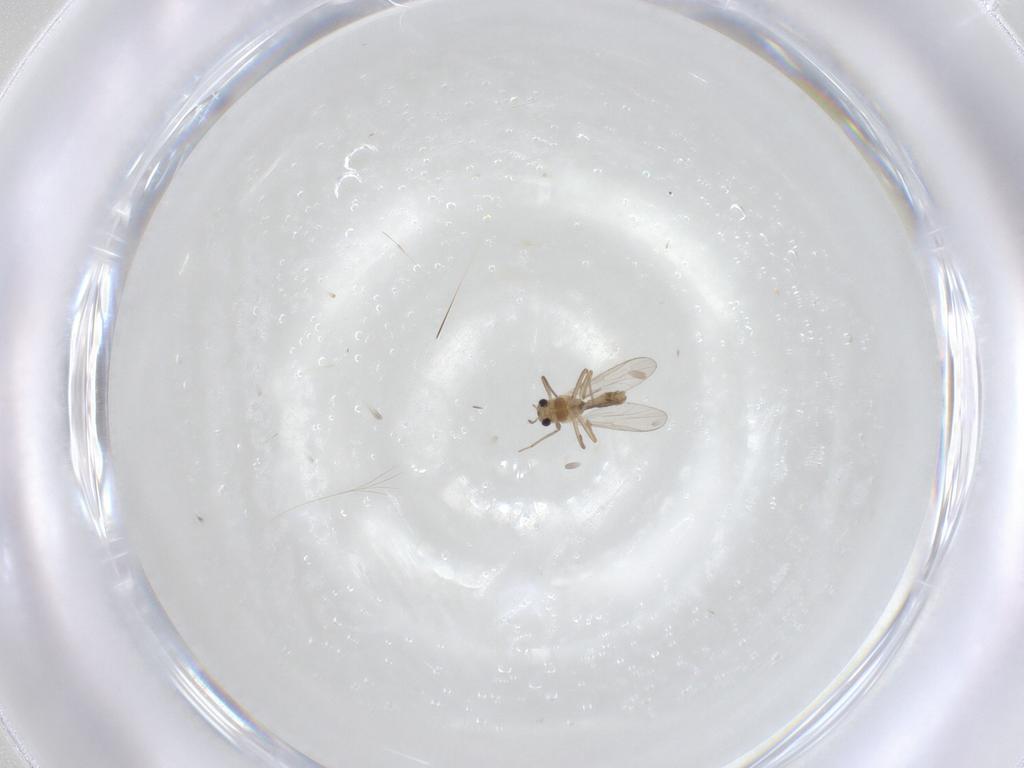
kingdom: Animalia
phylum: Arthropoda
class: Insecta
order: Diptera
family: Chironomidae
